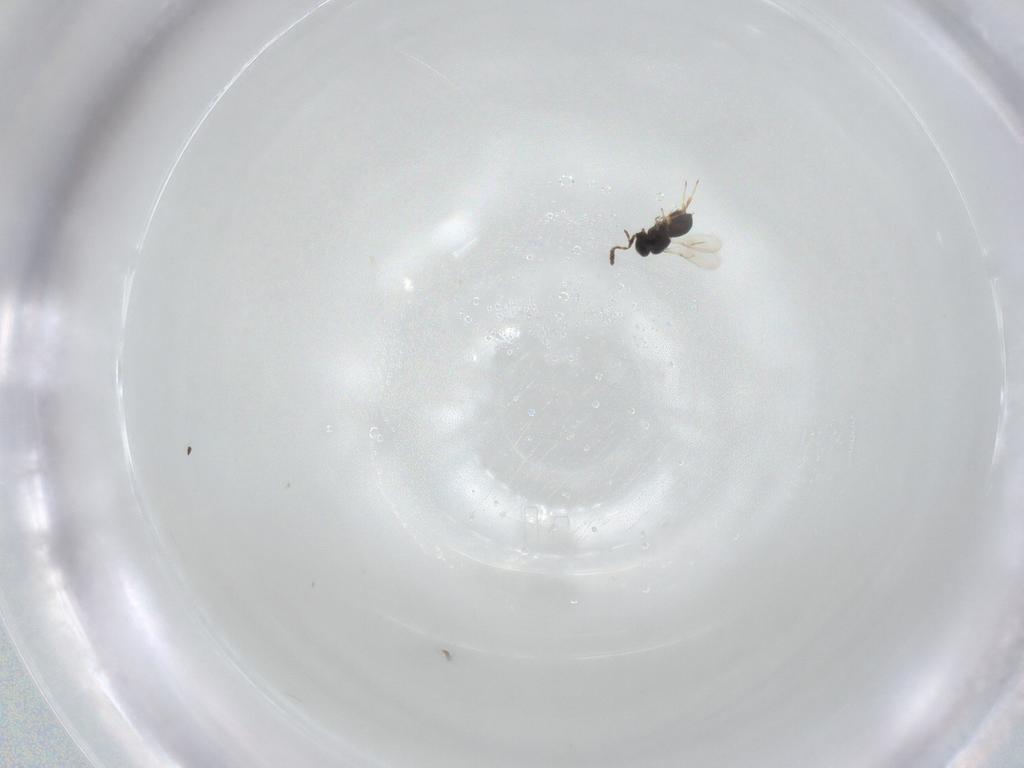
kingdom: Animalia
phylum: Arthropoda
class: Insecta
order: Hymenoptera
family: Scelionidae
